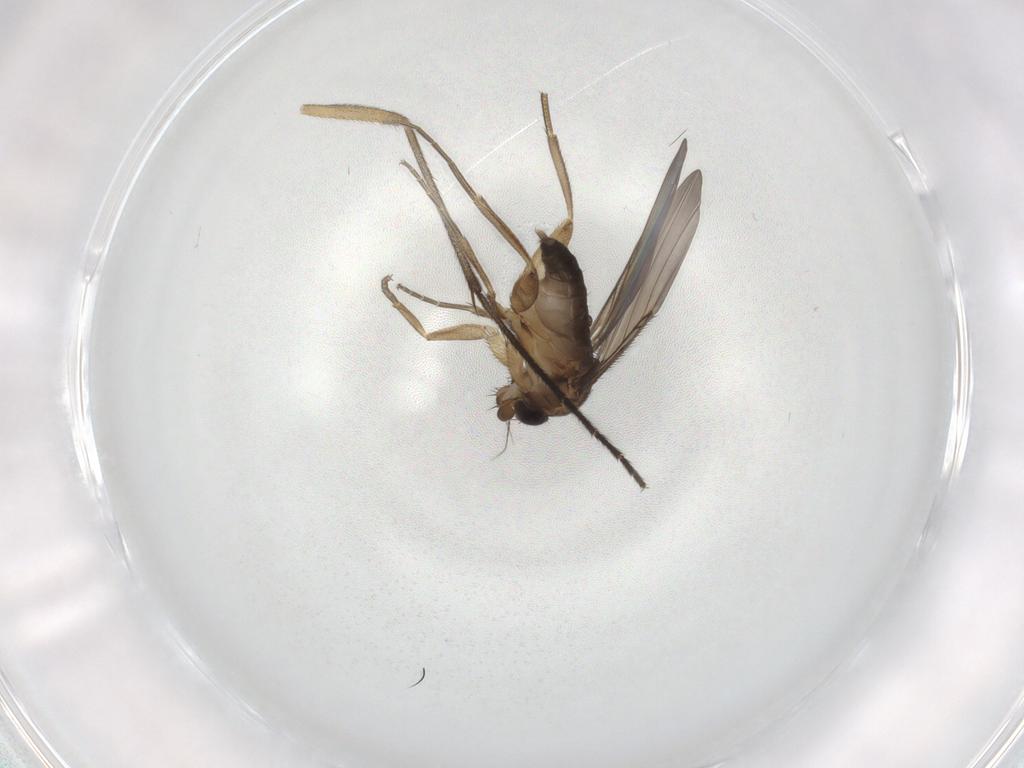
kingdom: Animalia
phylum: Arthropoda
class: Insecta
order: Diptera
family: Phoridae
